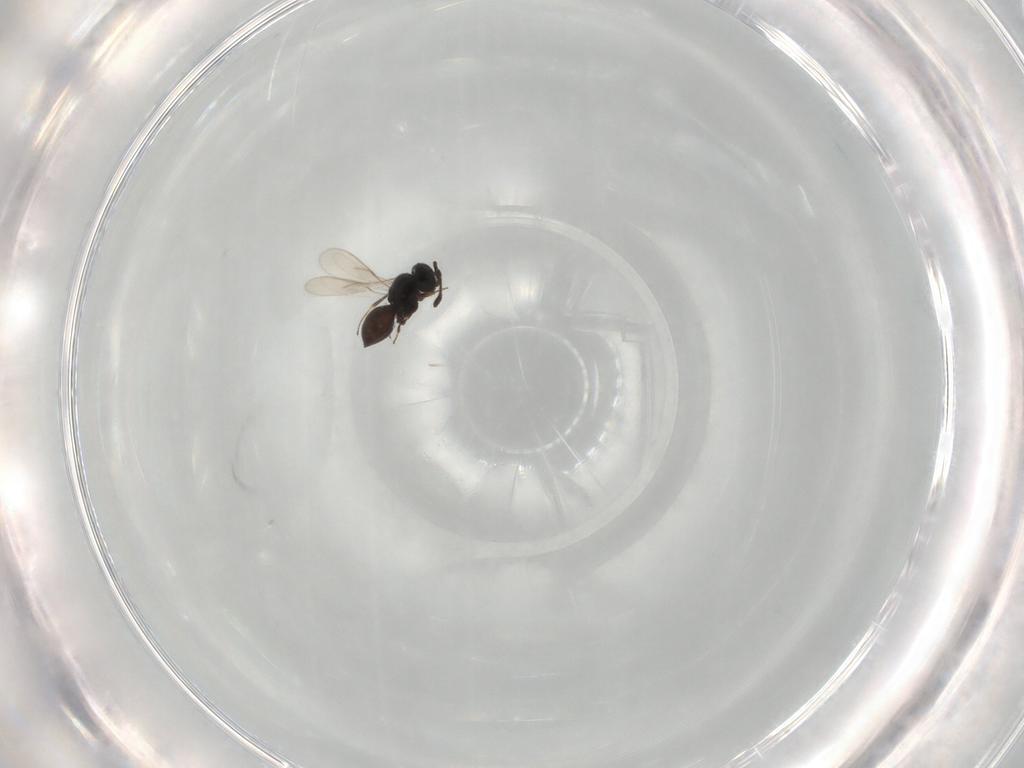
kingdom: Animalia
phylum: Arthropoda
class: Insecta
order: Hymenoptera
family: Scelionidae
